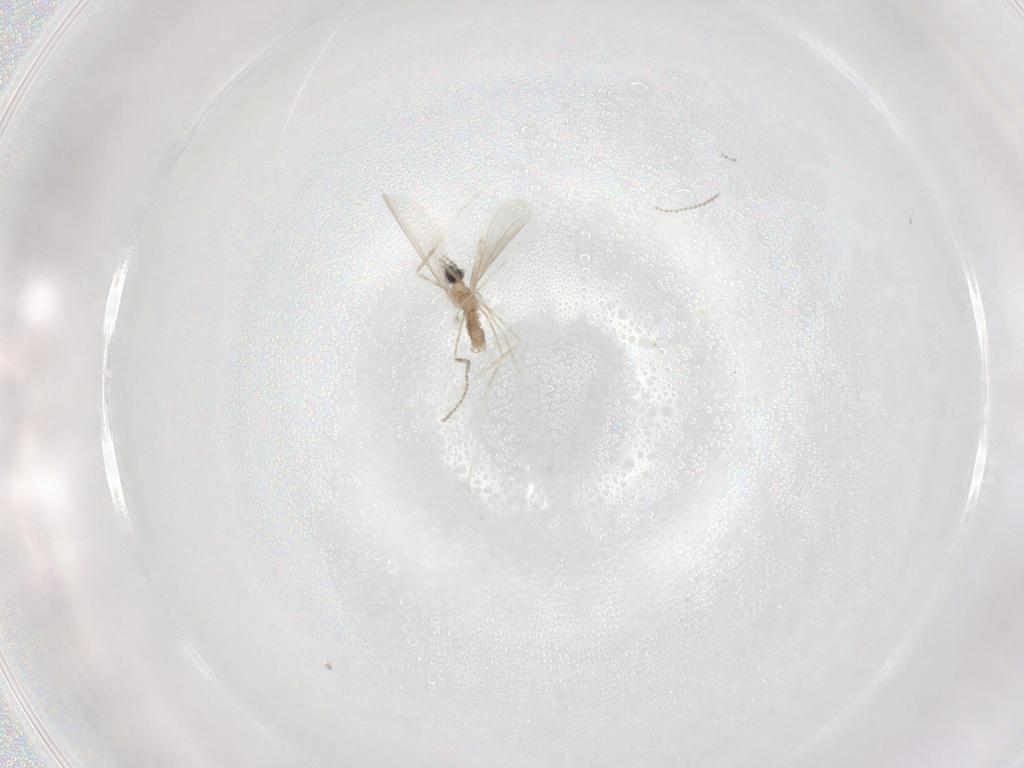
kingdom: Animalia
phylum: Arthropoda
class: Insecta
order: Diptera
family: Cecidomyiidae
